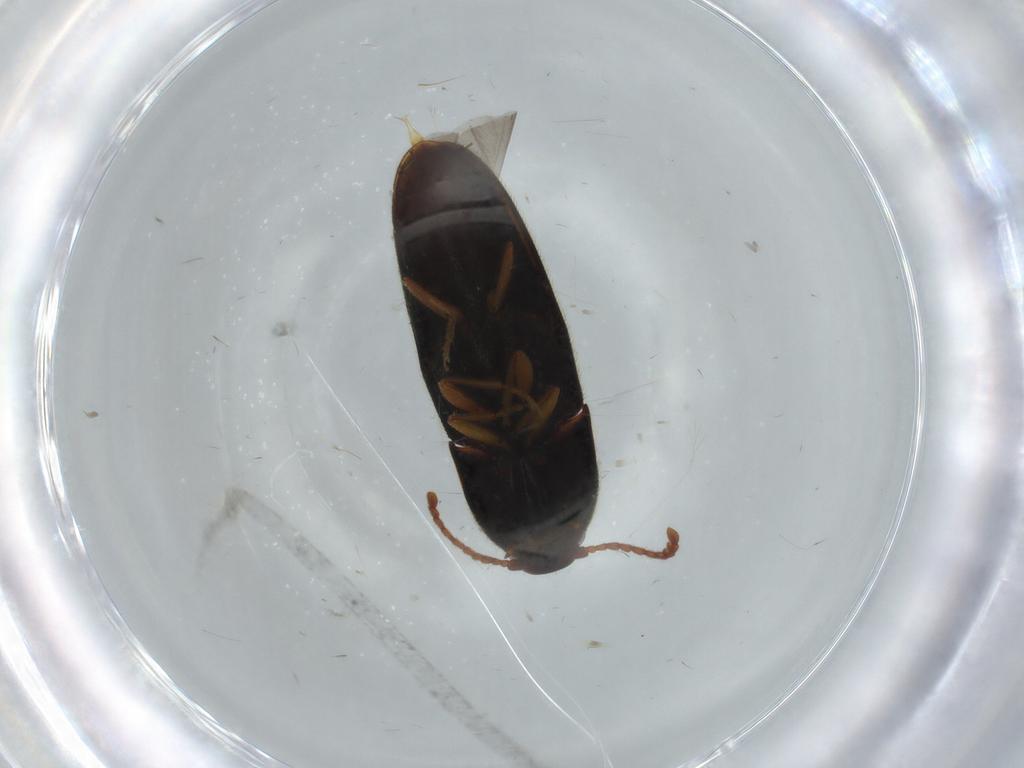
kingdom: Animalia
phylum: Arthropoda
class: Insecta
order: Coleoptera
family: Elateridae
